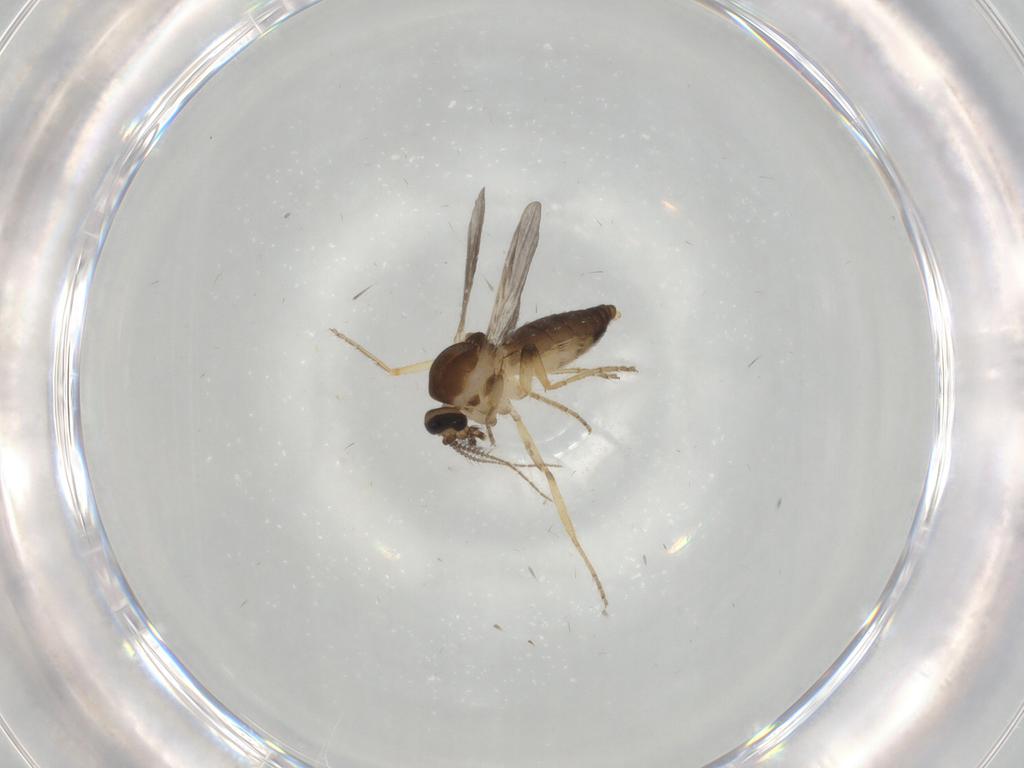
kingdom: Animalia
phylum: Arthropoda
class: Insecta
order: Diptera
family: Ceratopogonidae
